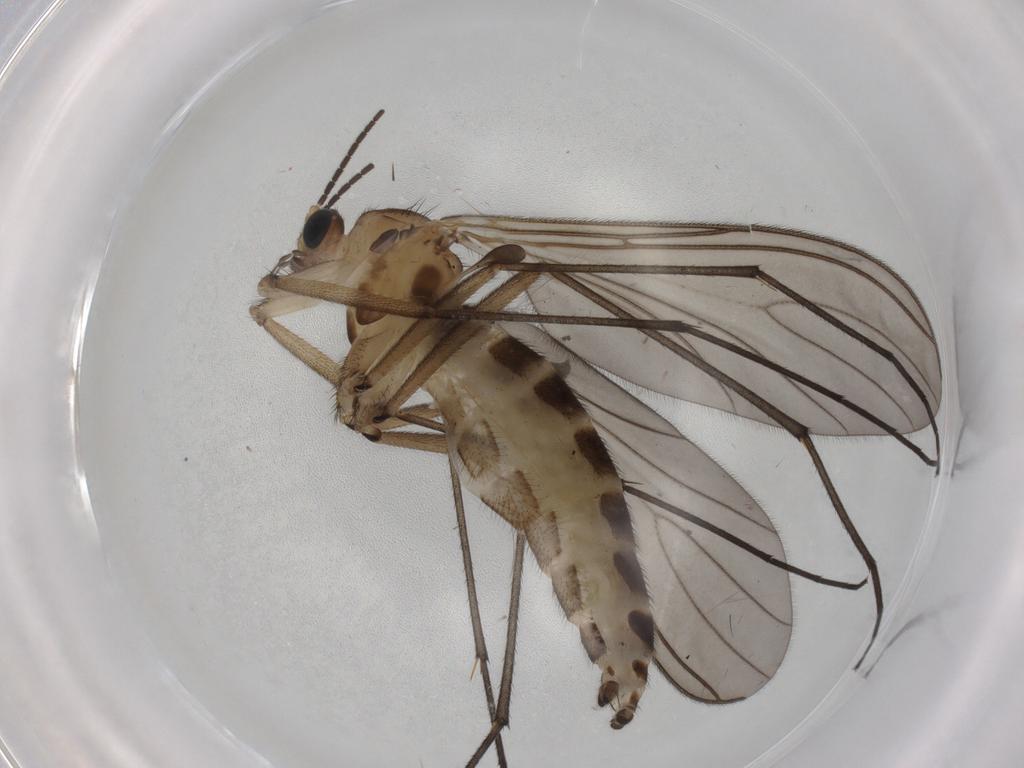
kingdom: Animalia
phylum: Arthropoda
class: Insecta
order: Diptera
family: Sciaridae
